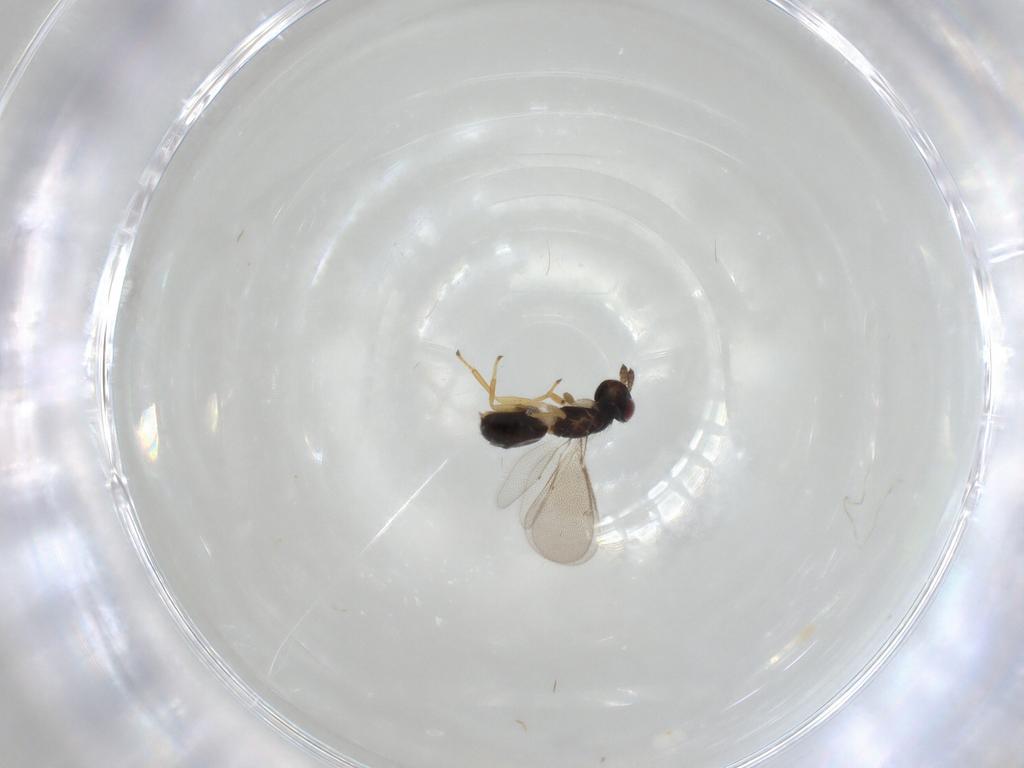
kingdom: Animalia
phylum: Arthropoda
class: Insecta
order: Hymenoptera
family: Eulophidae
